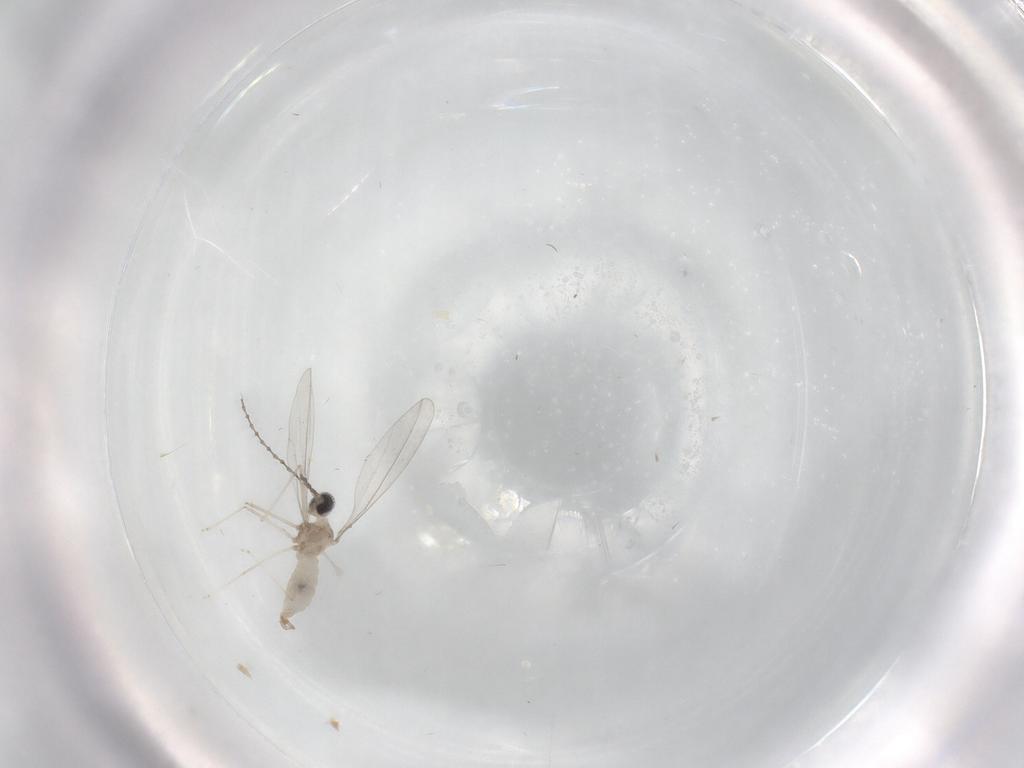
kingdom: Animalia
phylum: Arthropoda
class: Insecta
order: Diptera
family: Cecidomyiidae
